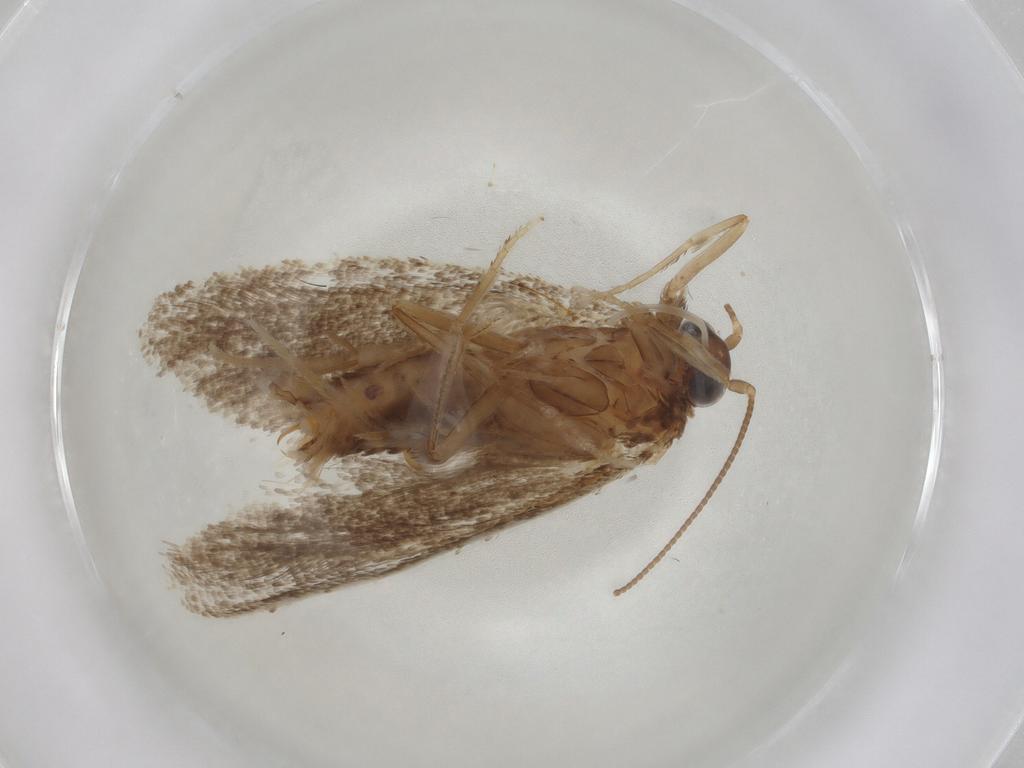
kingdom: Animalia
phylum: Arthropoda
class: Insecta
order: Lepidoptera
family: Tortricidae
